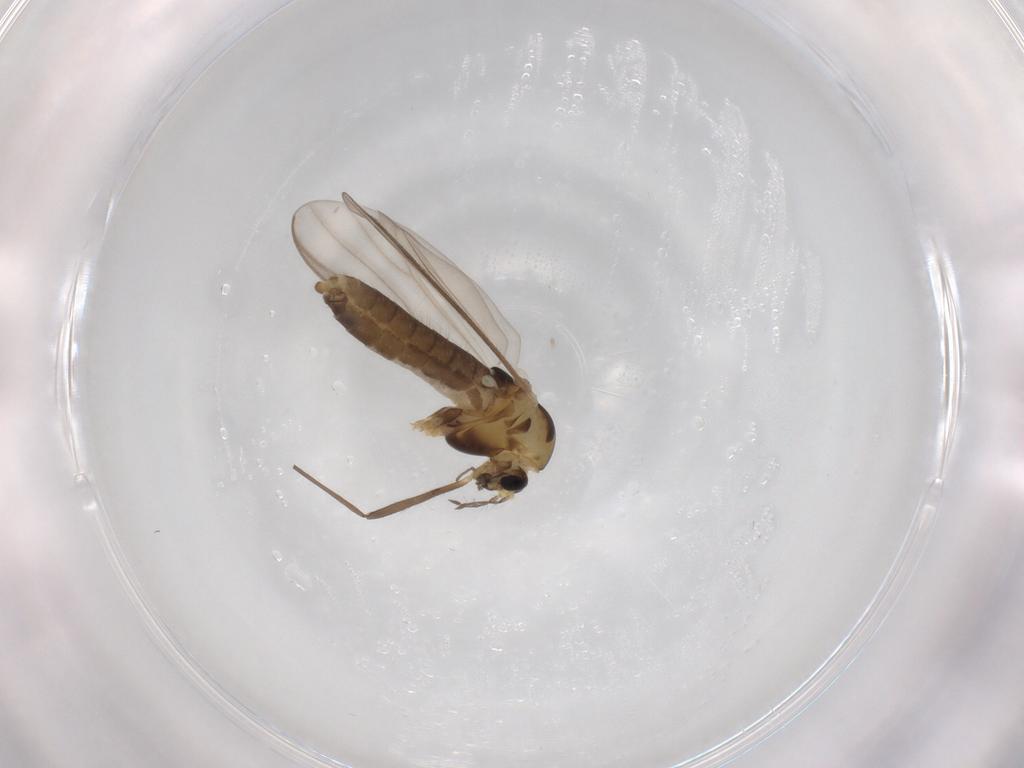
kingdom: Animalia
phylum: Arthropoda
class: Insecta
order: Diptera
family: Chironomidae
